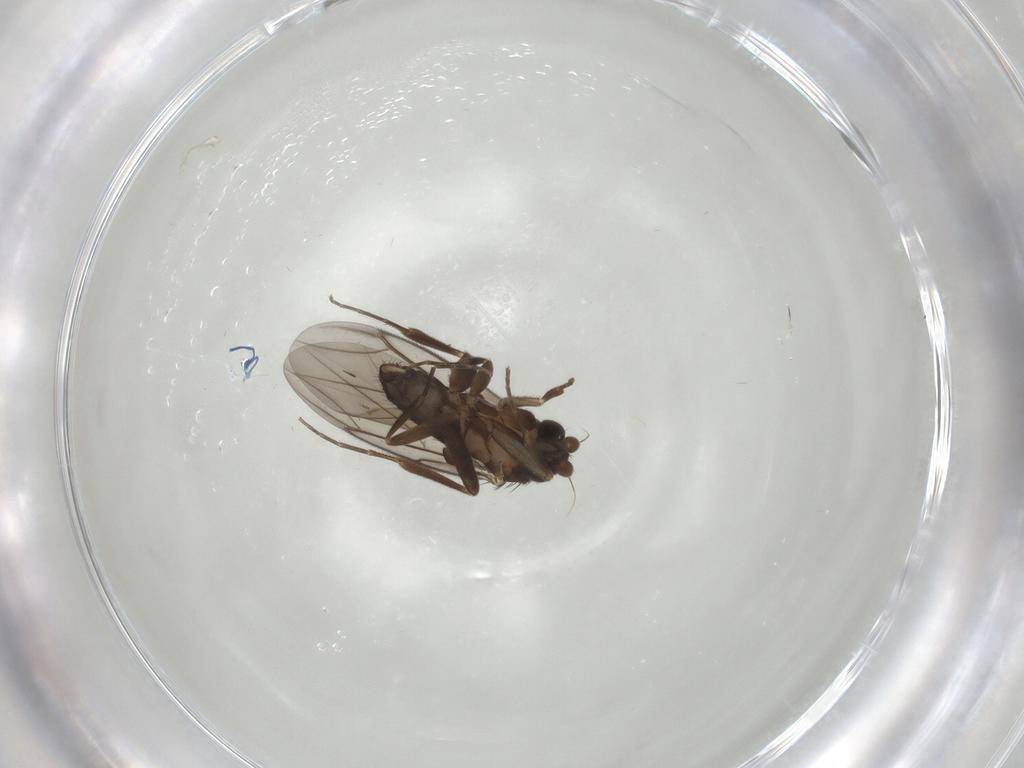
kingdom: Animalia
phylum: Arthropoda
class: Insecta
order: Diptera
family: Phoridae
